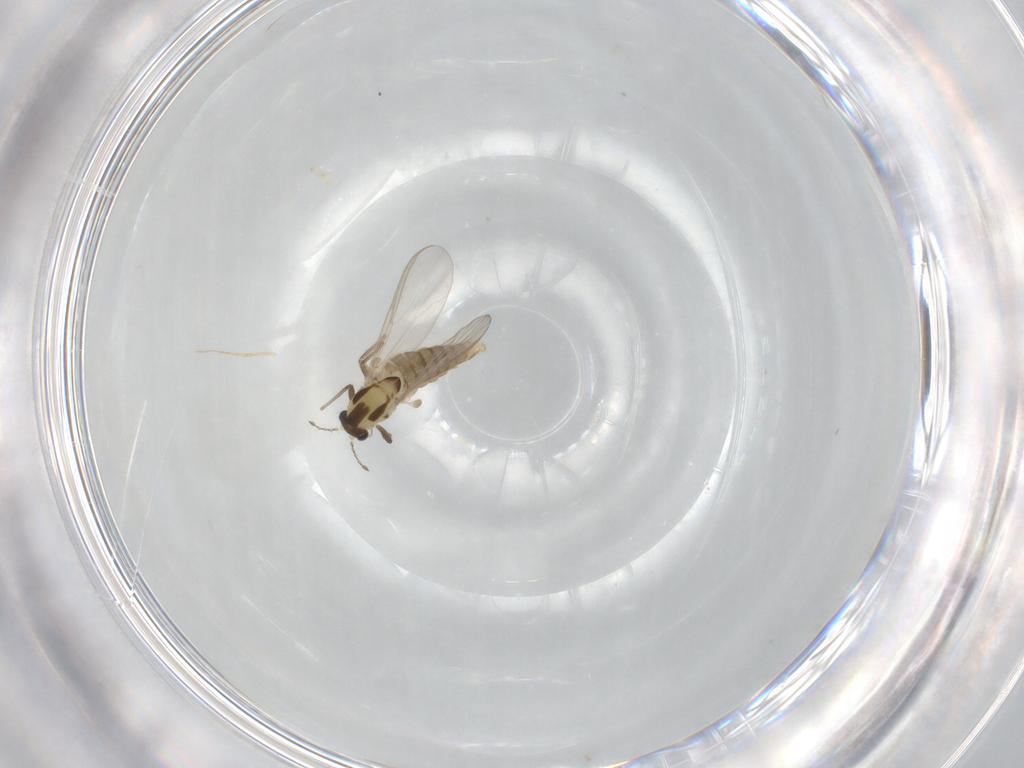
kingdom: Animalia
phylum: Arthropoda
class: Insecta
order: Diptera
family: Chironomidae
